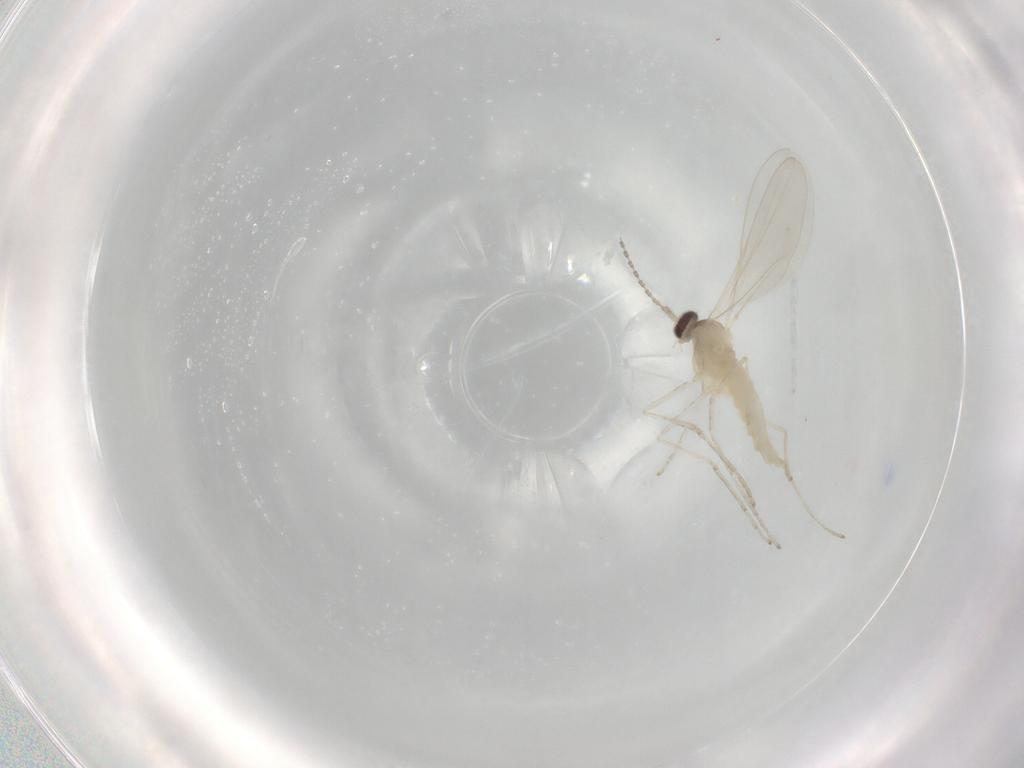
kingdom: Animalia
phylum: Arthropoda
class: Insecta
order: Diptera
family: Cecidomyiidae
